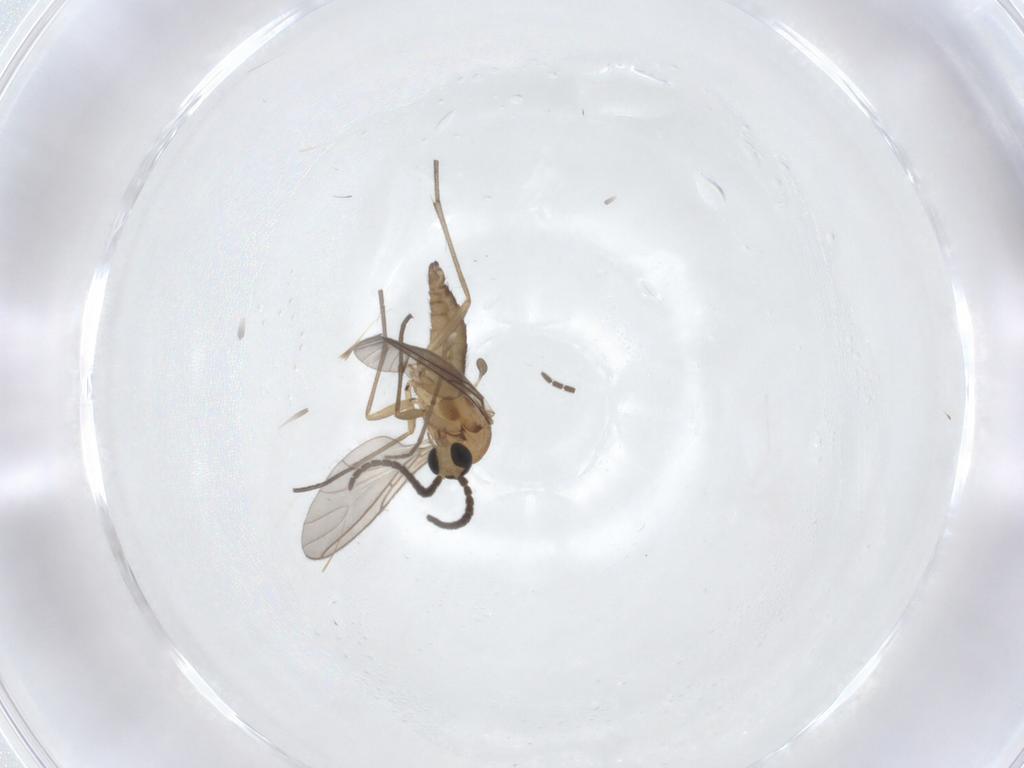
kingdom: Animalia
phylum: Arthropoda
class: Insecta
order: Diptera
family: Sciaridae
